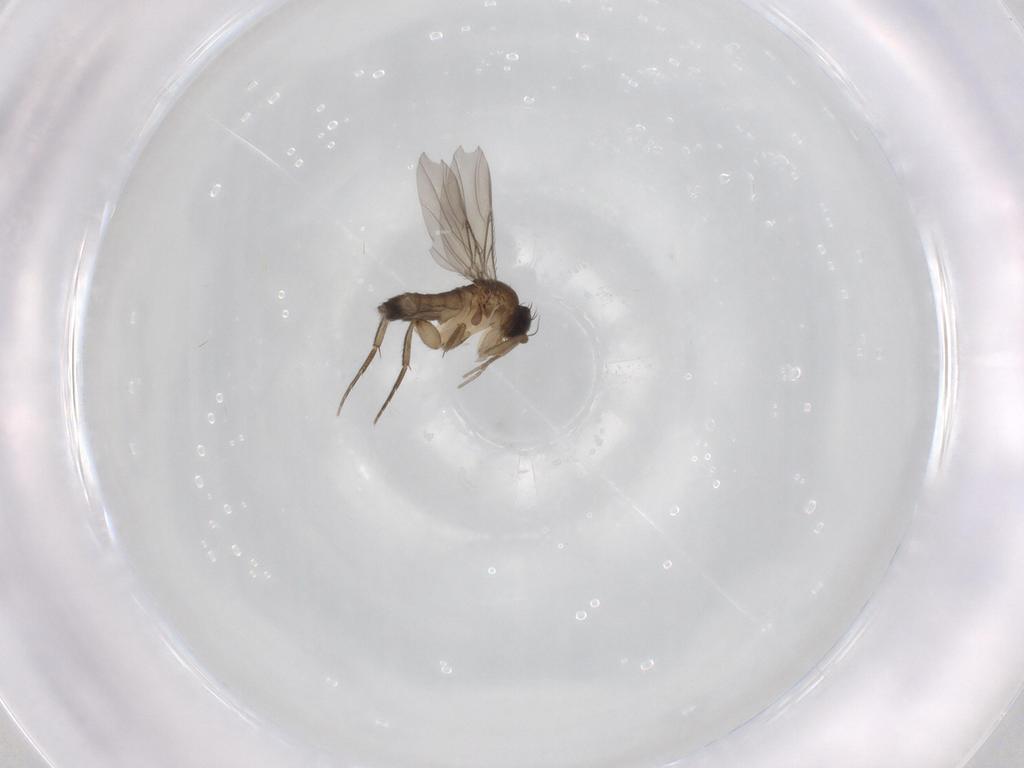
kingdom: Animalia
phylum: Arthropoda
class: Insecta
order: Diptera
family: Phoridae
